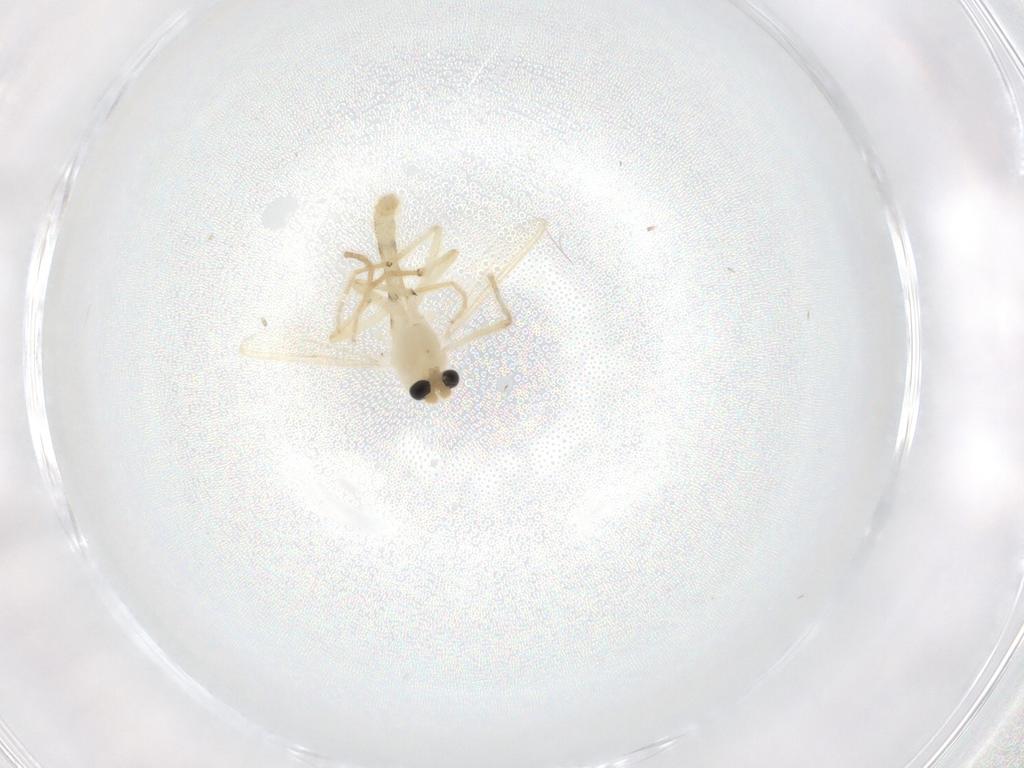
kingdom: Animalia
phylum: Arthropoda
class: Insecta
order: Diptera
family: Chironomidae
